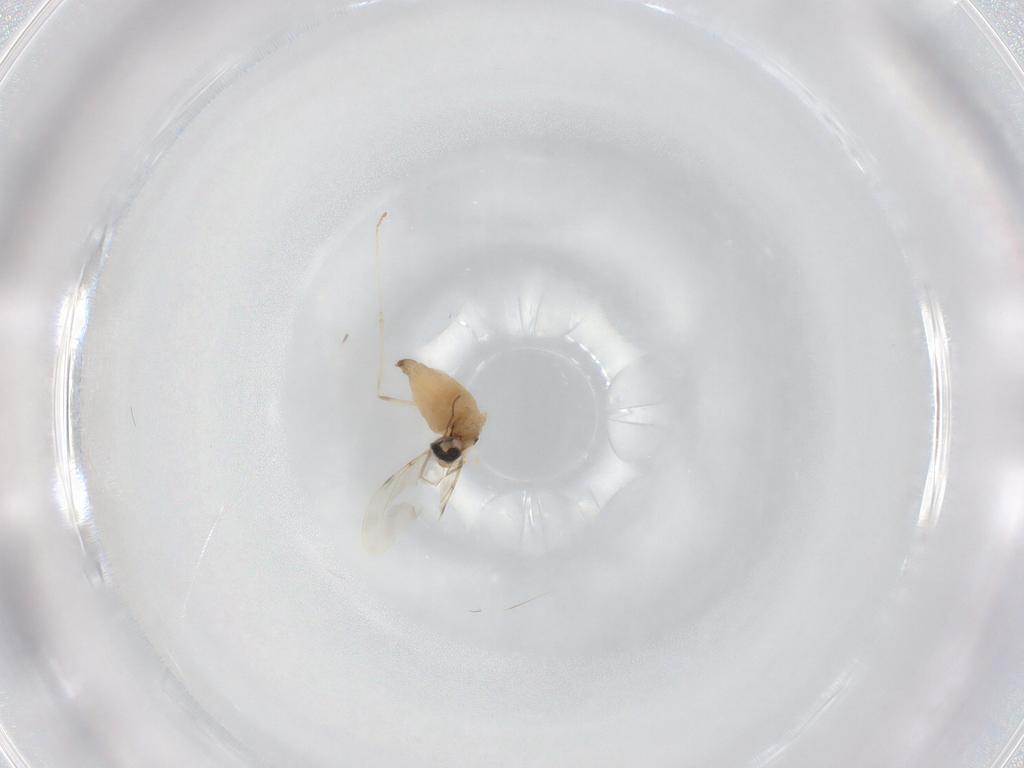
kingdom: Animalia
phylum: Arthropoda
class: Insecta
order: Diptera
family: Cecidomyiidae
